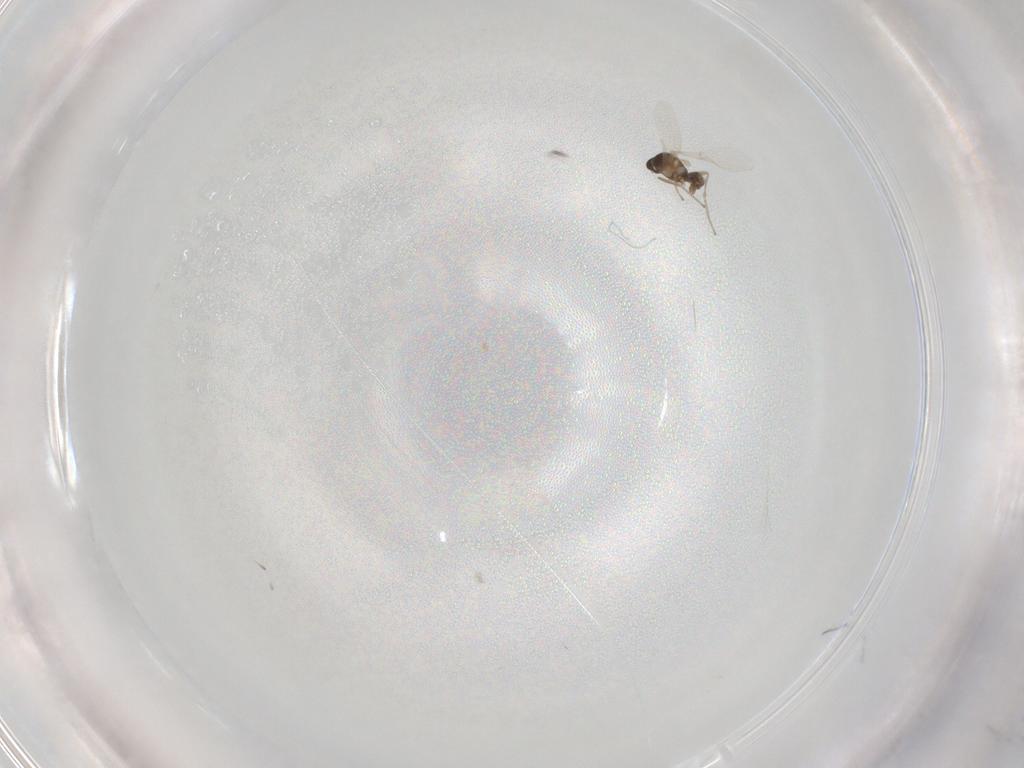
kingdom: Animalia
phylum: Arthropoda
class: Insecta
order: Diptera
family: Cecidomyiidae
